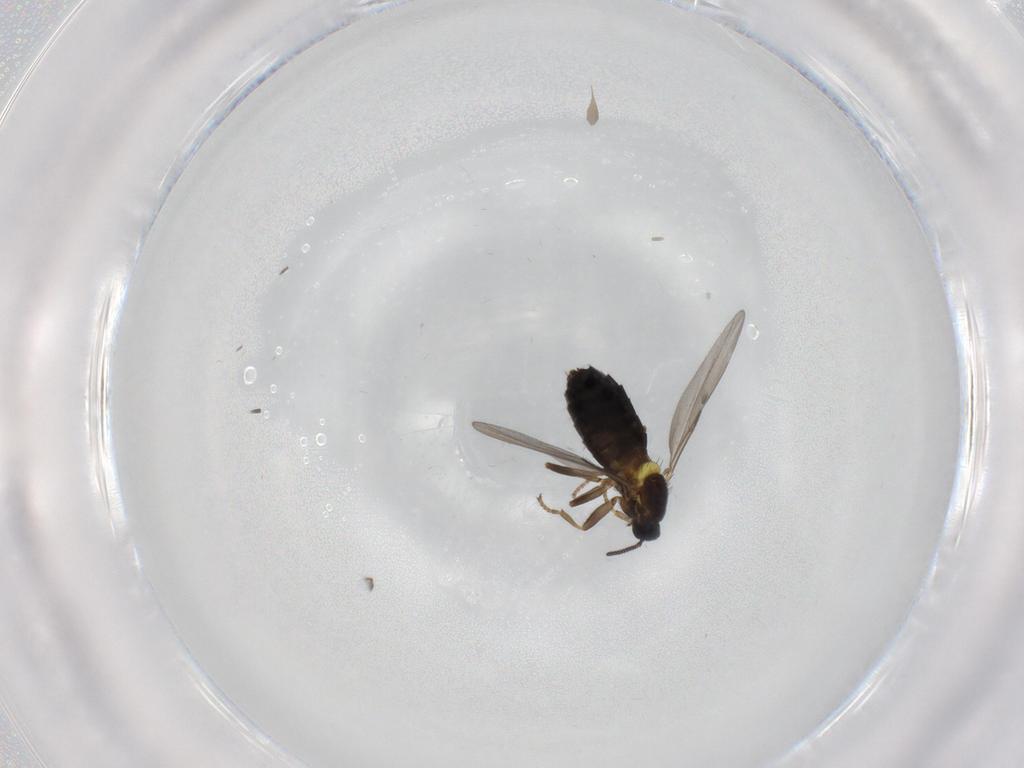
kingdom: Animalia
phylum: Arthropoda
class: Insecta
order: Diptera
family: Scatopsidae
